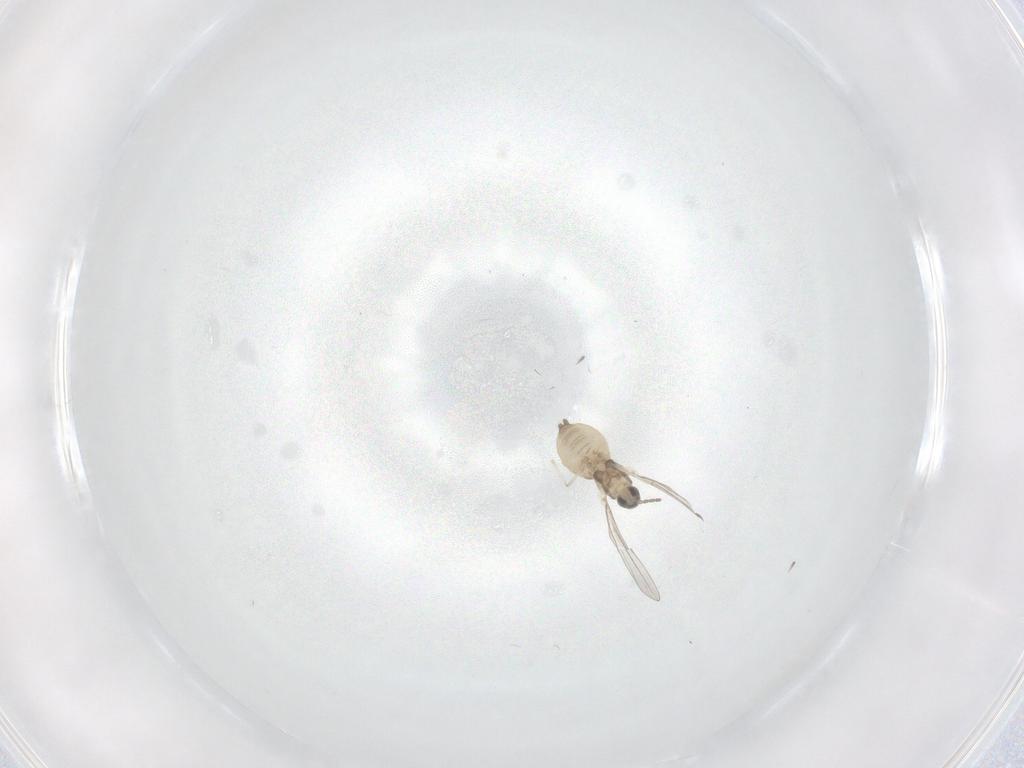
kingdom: Animalia
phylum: Arthropoda
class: Insecta
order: Diptera
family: Cecidomyiidae
